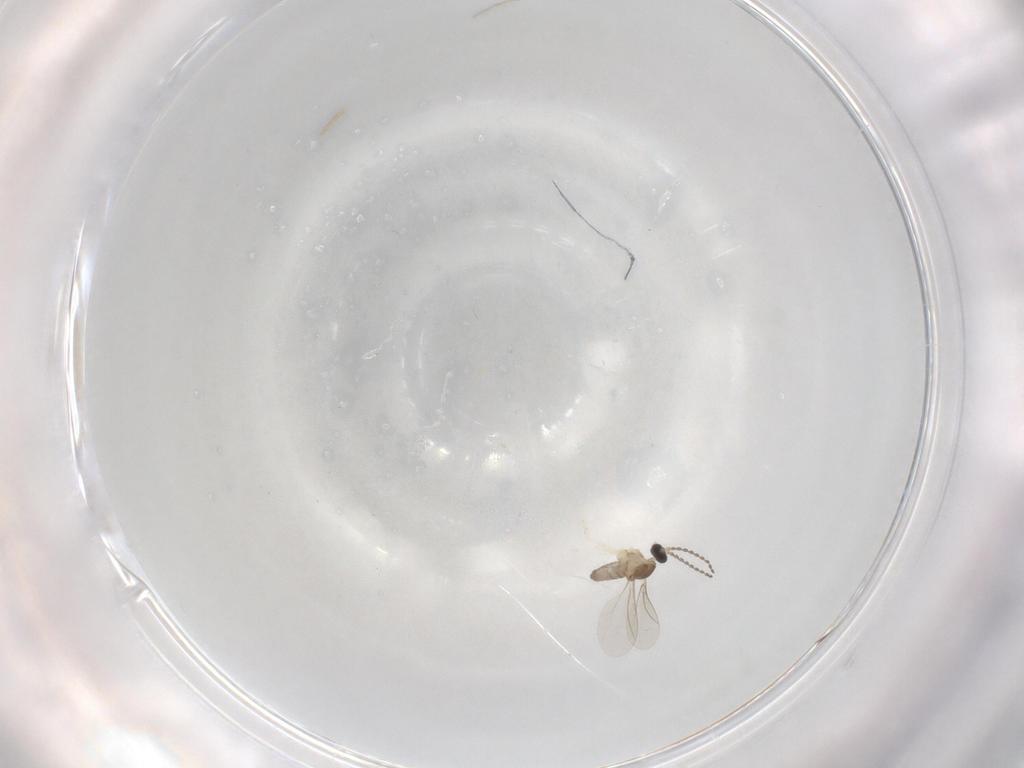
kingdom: Animalia
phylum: Arthropoda
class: Insecta
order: Diptera
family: Cecidomyiidae
